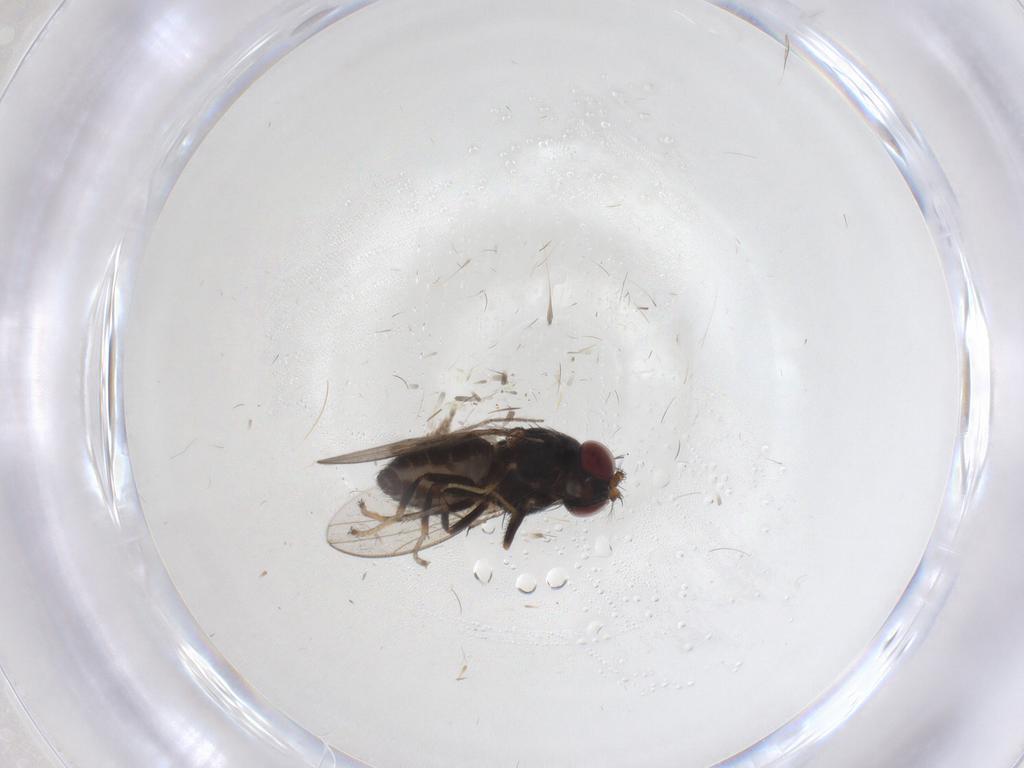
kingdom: Animalia
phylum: Arthropoda
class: Insecta
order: Diptera
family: Ephydridae
